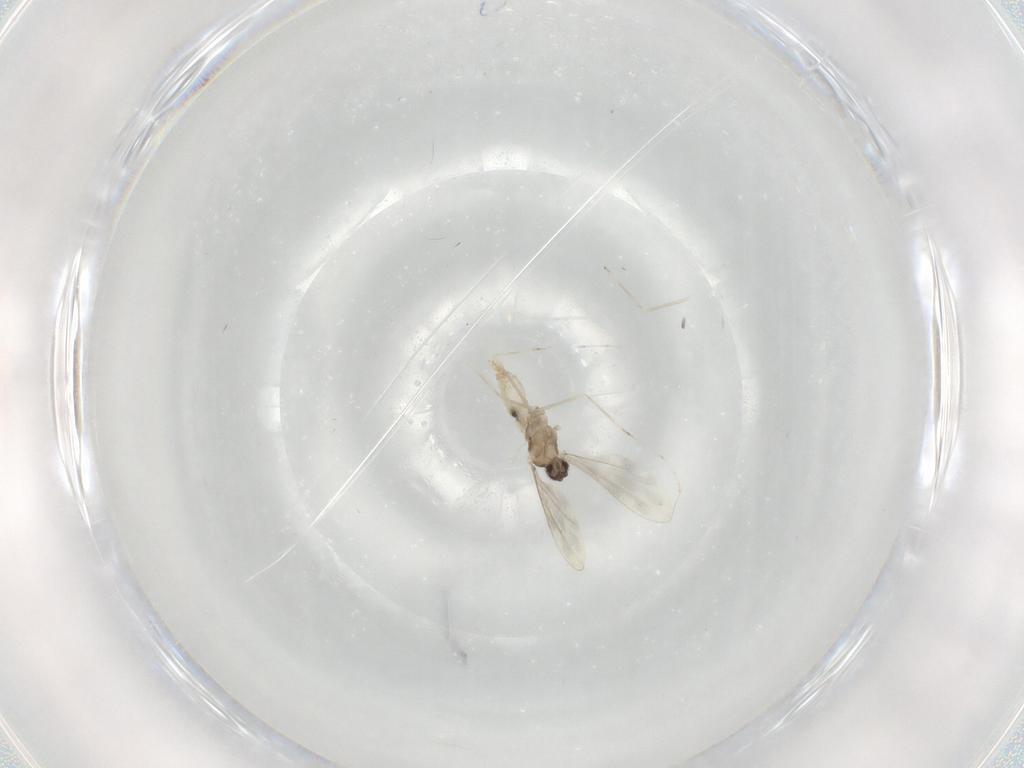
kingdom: Animalia
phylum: Arthropoda
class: Insecta
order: Diptera
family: Cecidomyiidae
